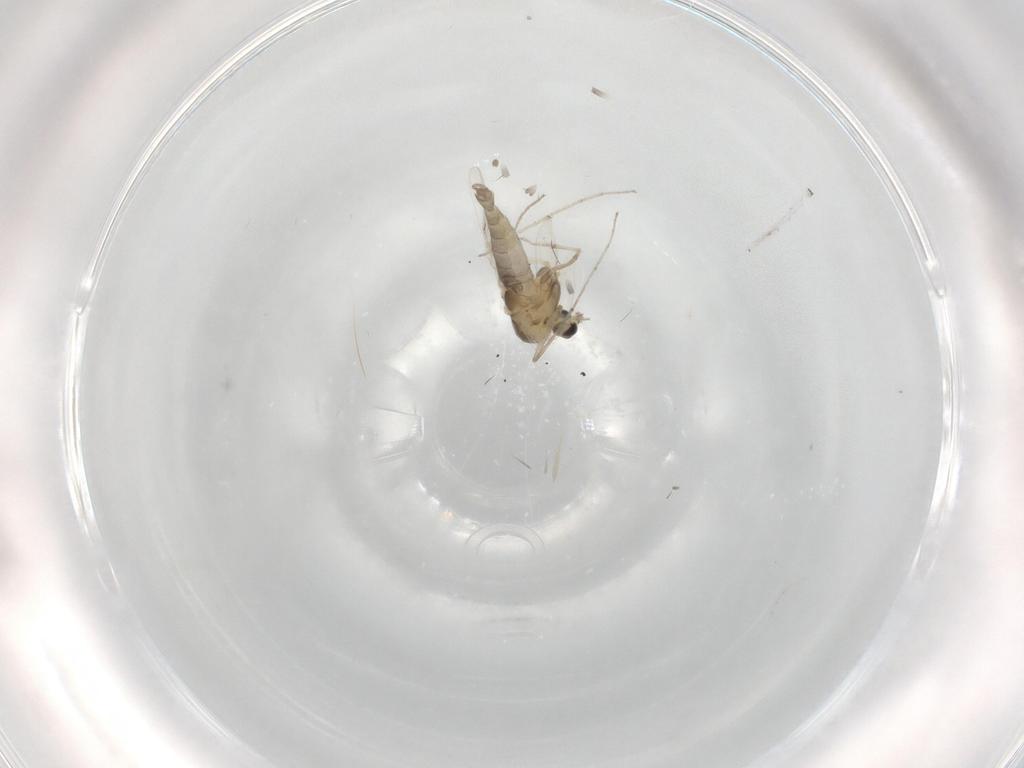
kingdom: Animalia
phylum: Arthropoda
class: Insecta
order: Diptera
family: Chironomidae
